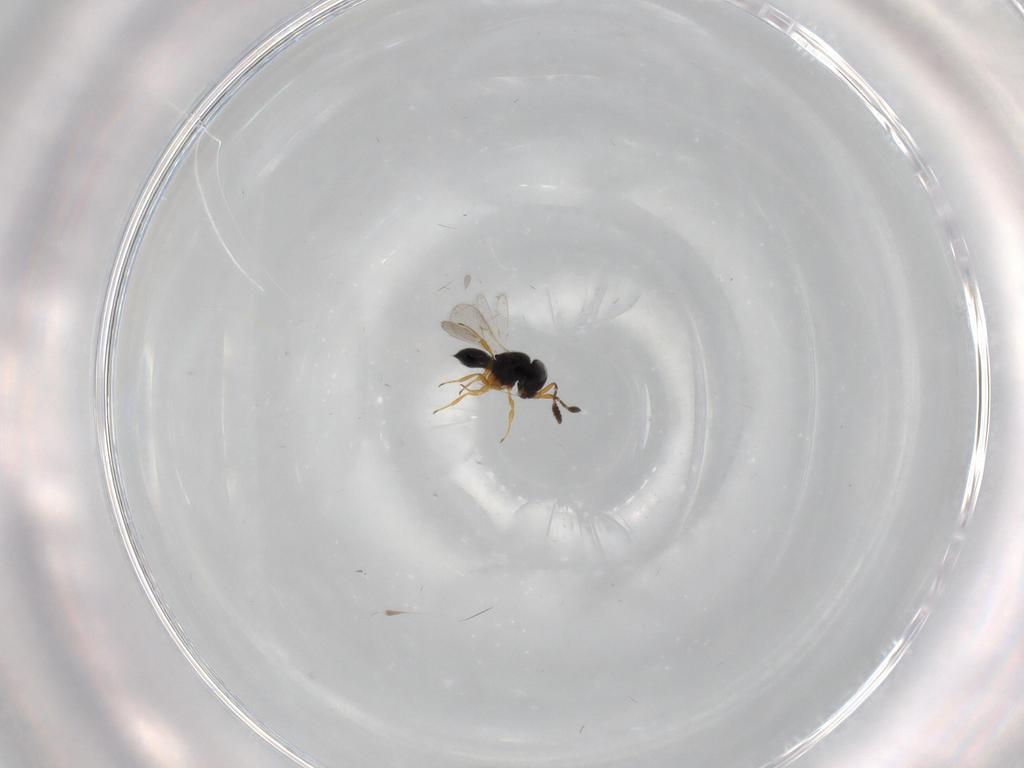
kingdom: Animalia
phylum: Arthropoda
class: Insecta
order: Hymenoptera
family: Scelionidae
